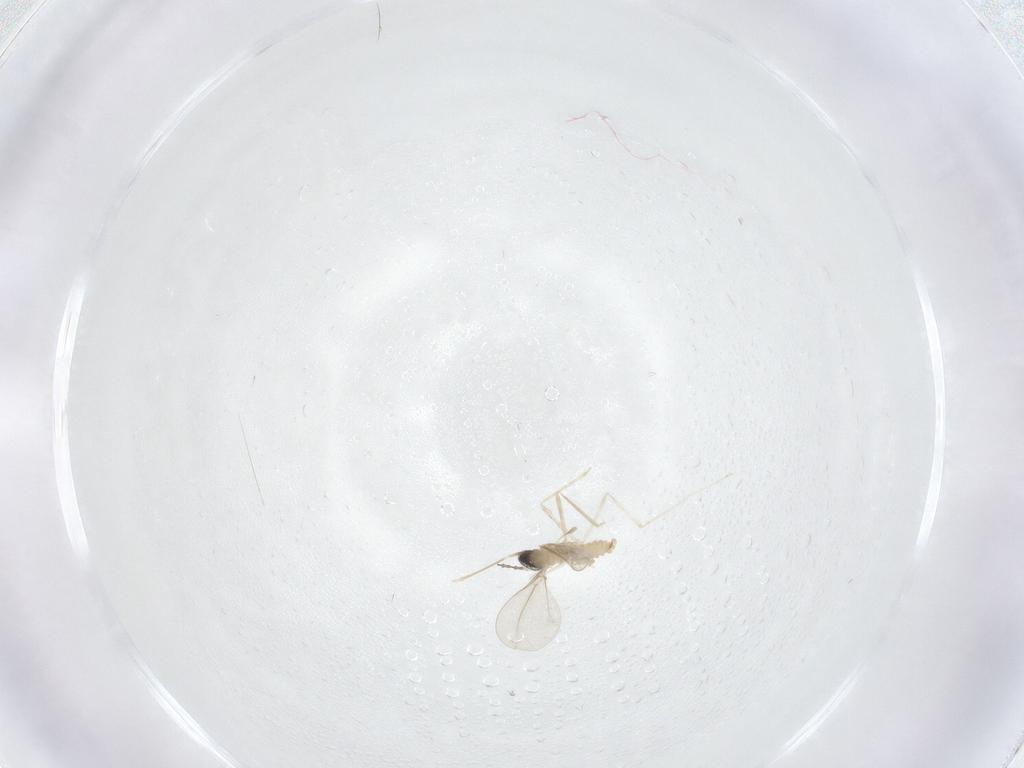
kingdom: Animalia
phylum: Arthropoda
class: Insecta
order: Diptera
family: Cecidomyiidae
